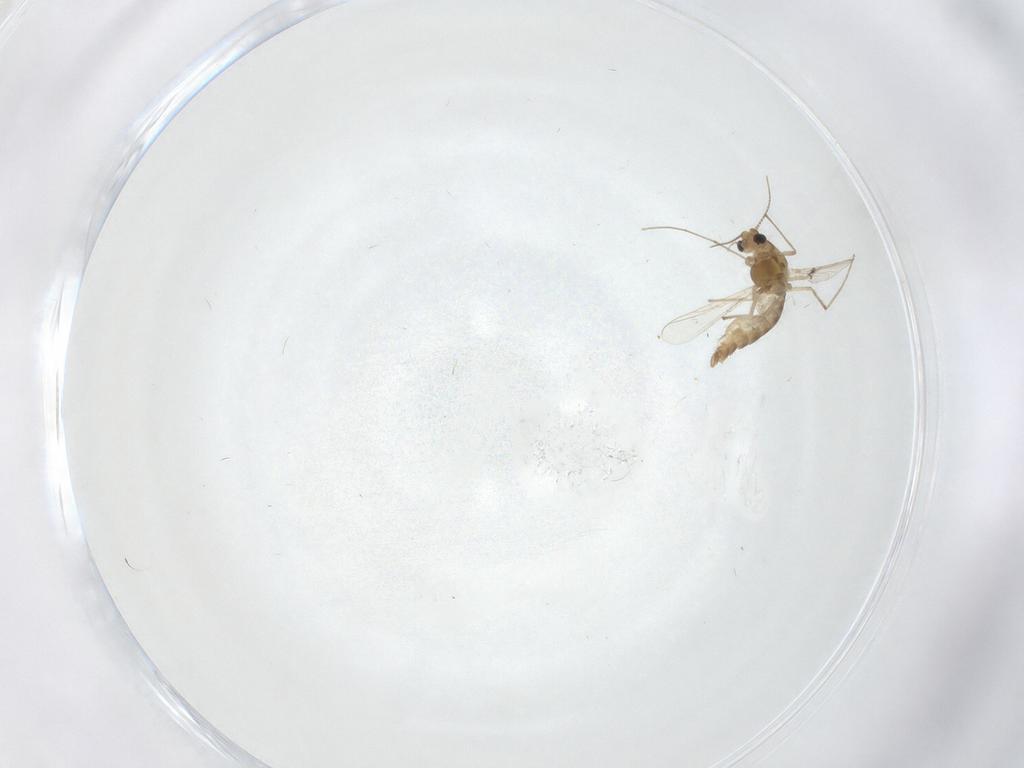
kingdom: Animalia
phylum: Arthropoda
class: Insecta
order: Diptera
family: Chironomidae
